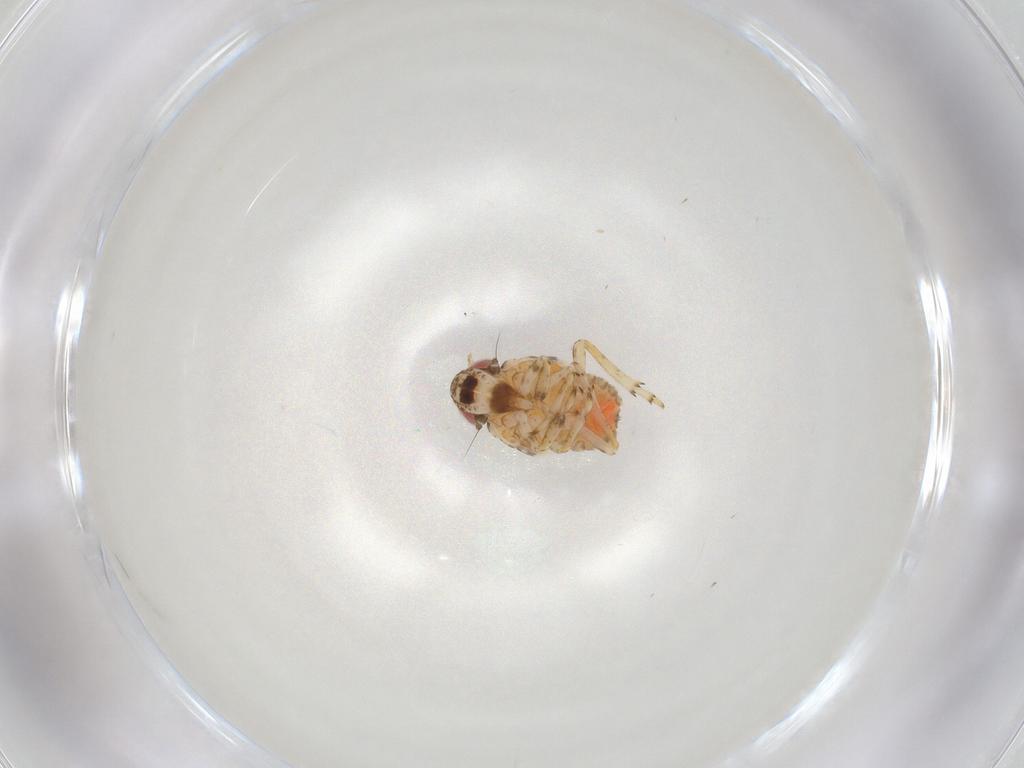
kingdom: Animalia
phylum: Arthropoda
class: Insecta
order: Hemiptera
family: Issidae
